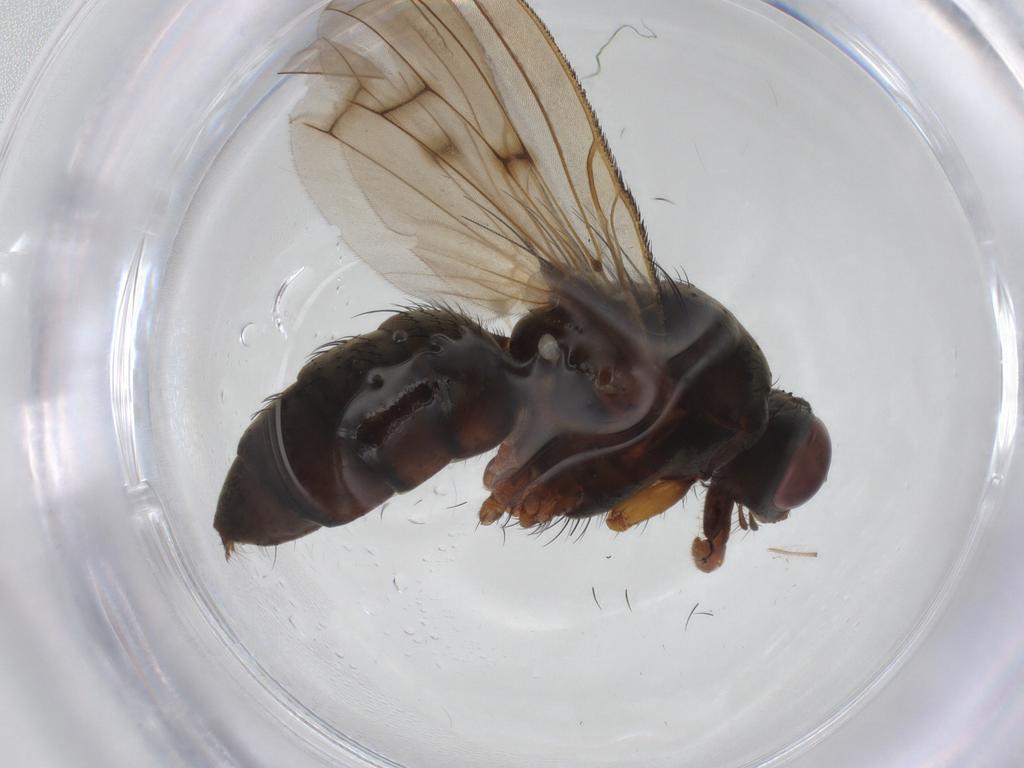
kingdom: Animalia
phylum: Arthropoda
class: Insecta
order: Diptera
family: Anthomyiidae
